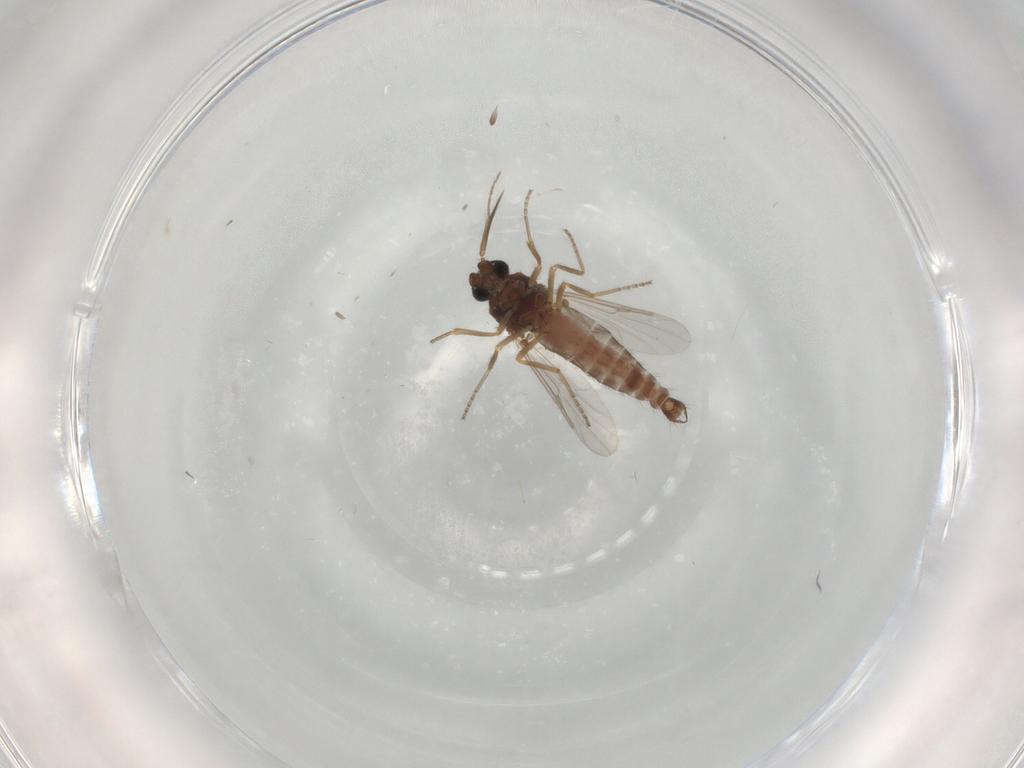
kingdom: Animalia
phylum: Arthropoda
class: Insecta
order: Diptera
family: Ceratopogonidae
